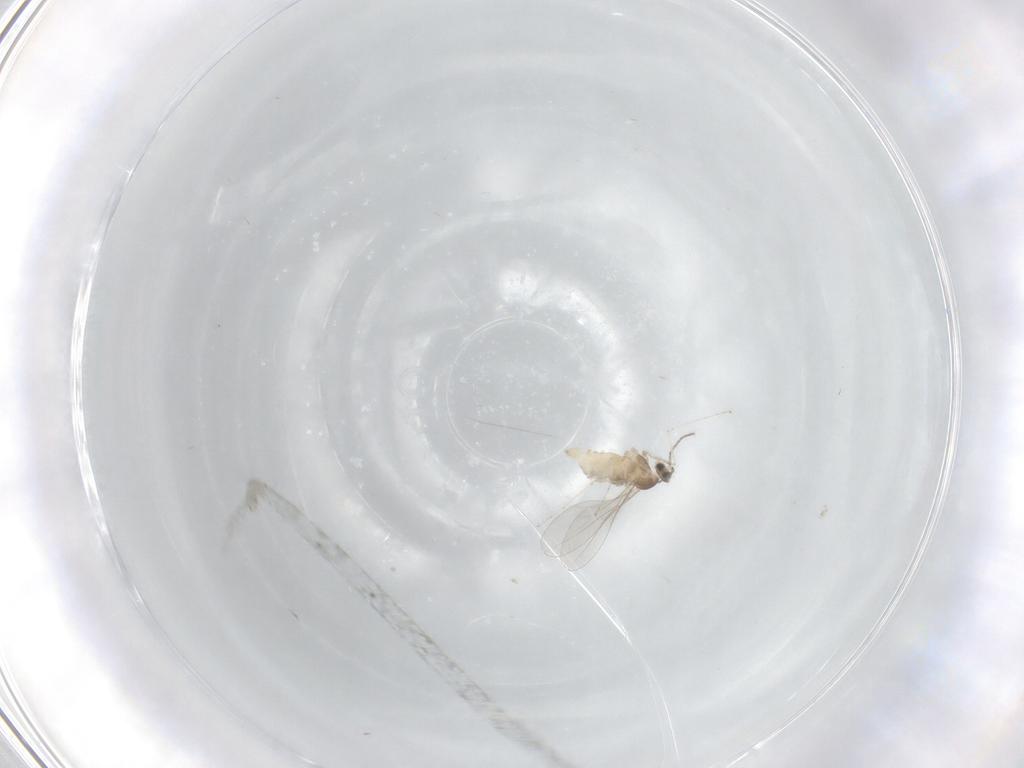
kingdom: Animalia
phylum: Arthropoda
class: Insecta
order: Diptera
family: Cecidomyiidae
